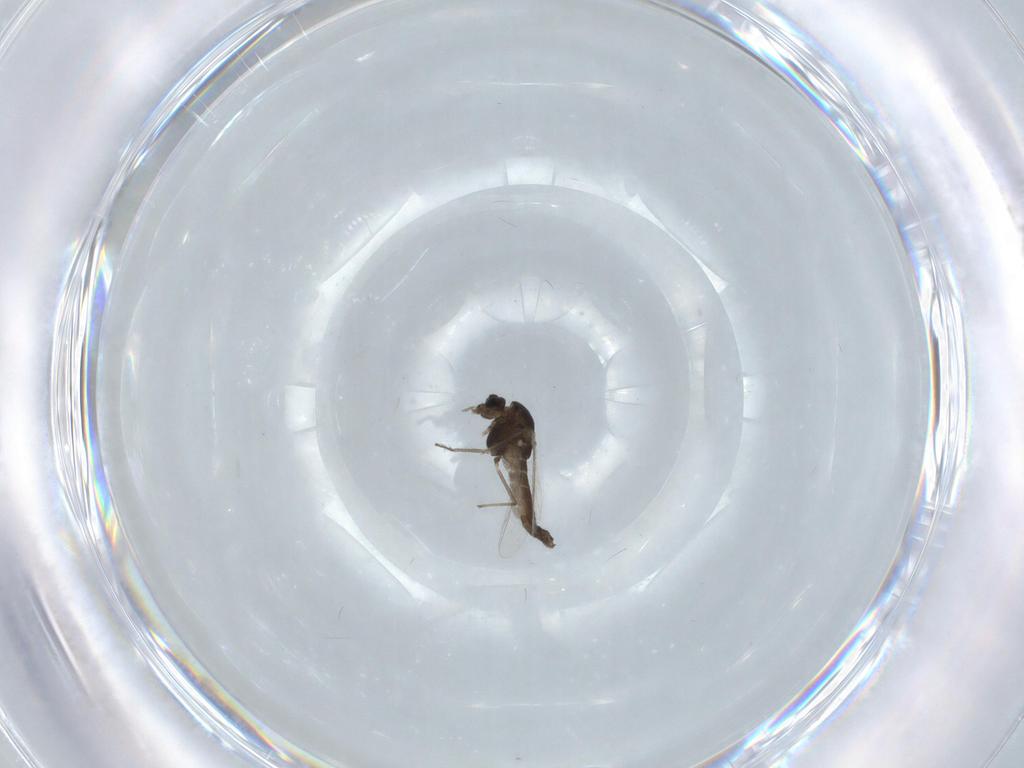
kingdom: Animalia
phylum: Arthropoda
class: Insecta
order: Diptera
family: Chironomidae
